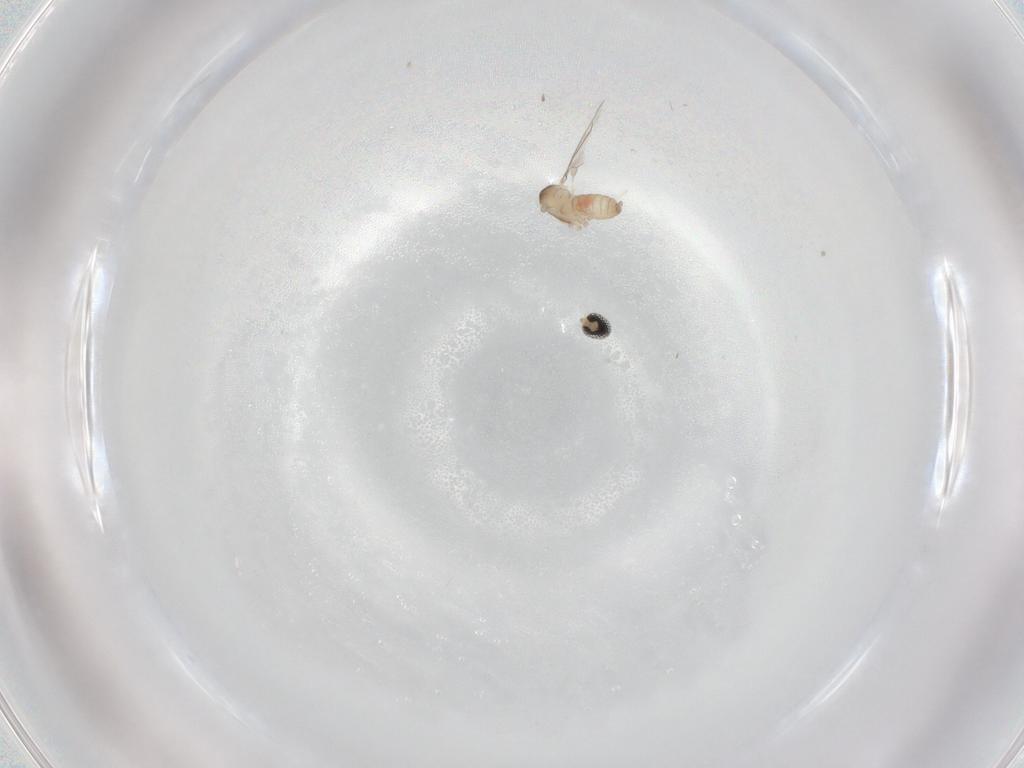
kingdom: Animalia
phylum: Arthropoda
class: Insecta
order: Diptera
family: Cecidomyiidae
